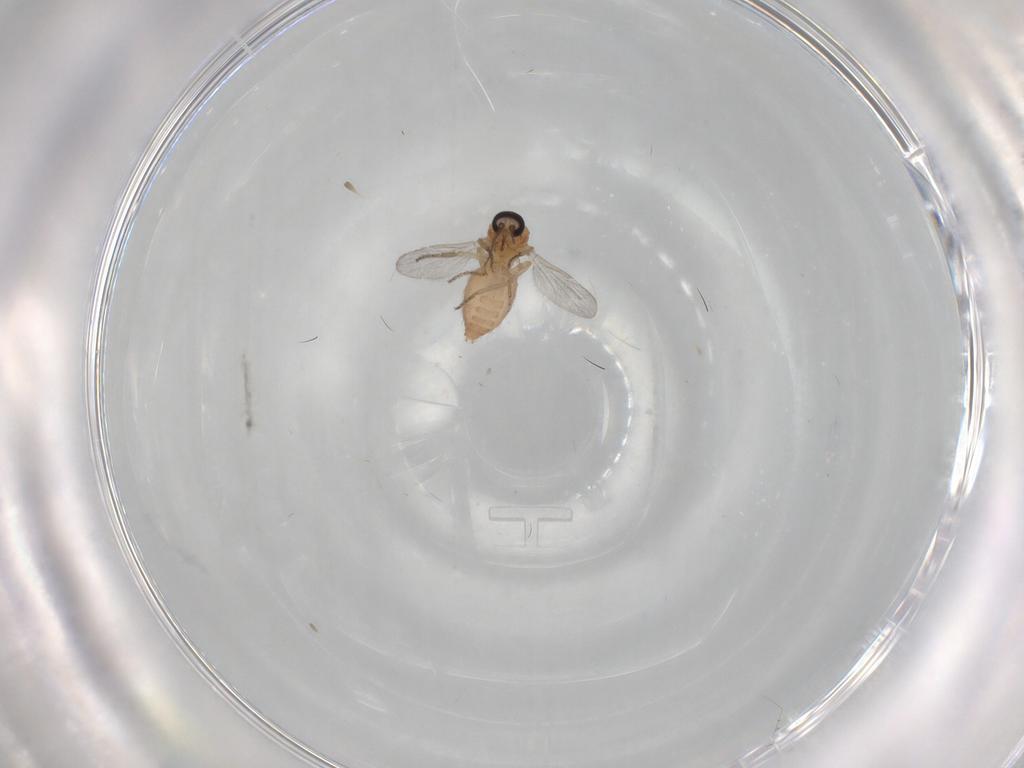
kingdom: Animalia
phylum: Arthropoda
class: Insecta
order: Diptera
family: Ceratopogonidae
